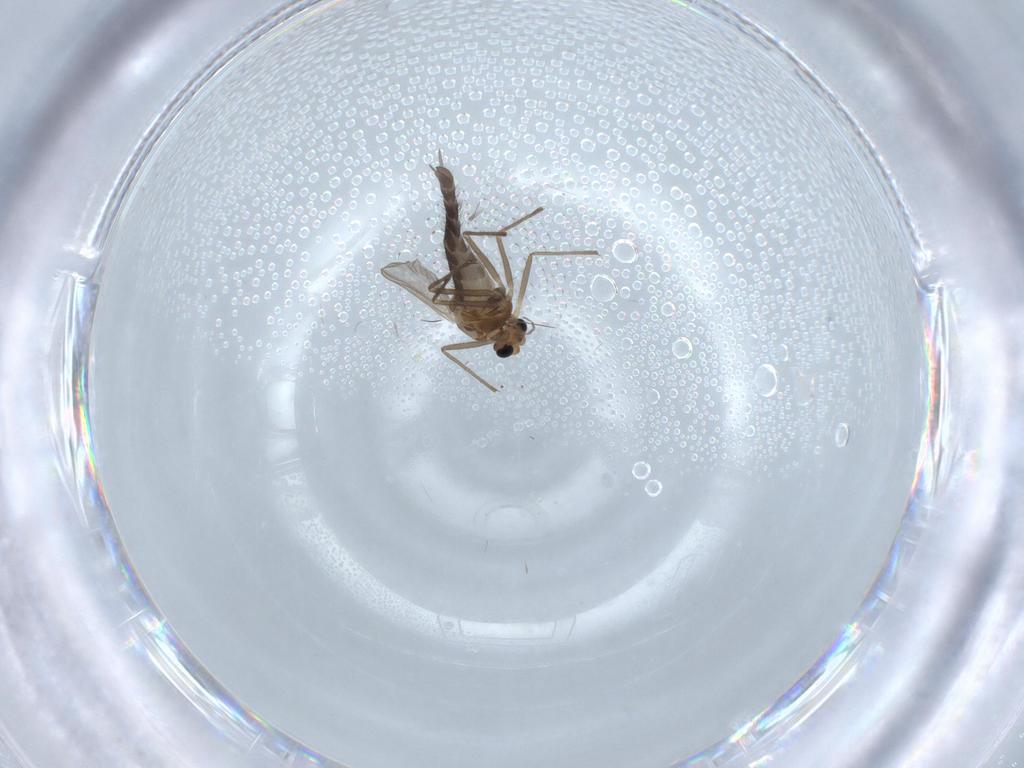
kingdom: Animalia
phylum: Arthropoda
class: Insecta
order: Diptera
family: Chironomidae
